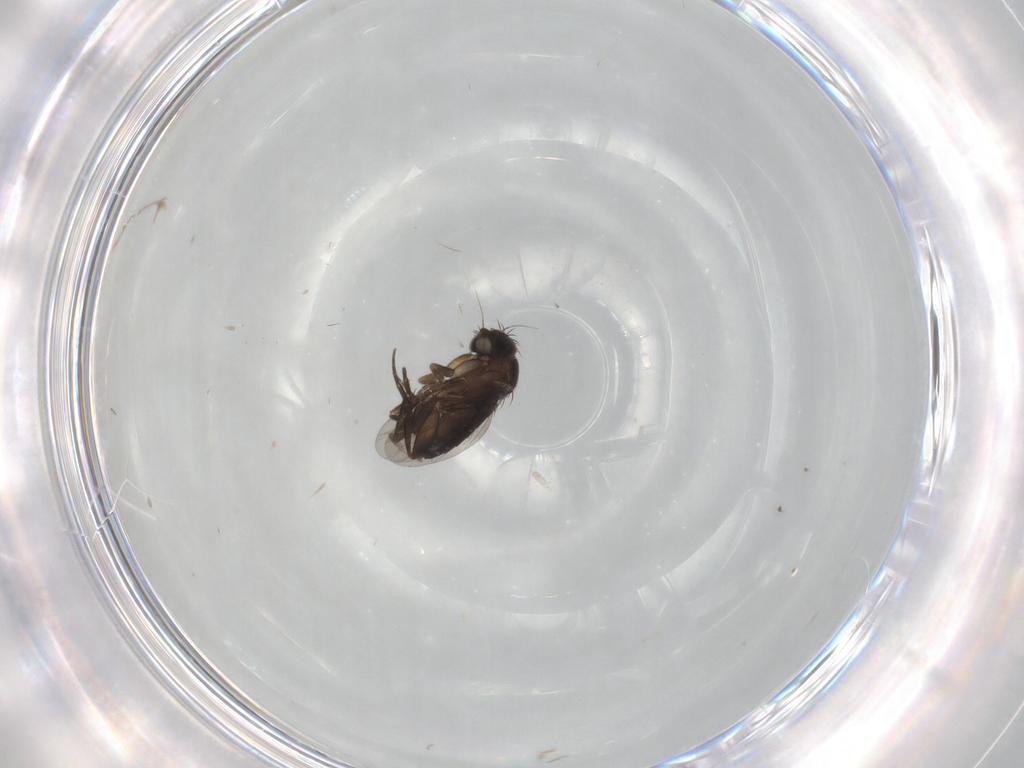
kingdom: Animalia
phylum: Arthropoda
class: Insecta
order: Diptera
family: Phoridae
